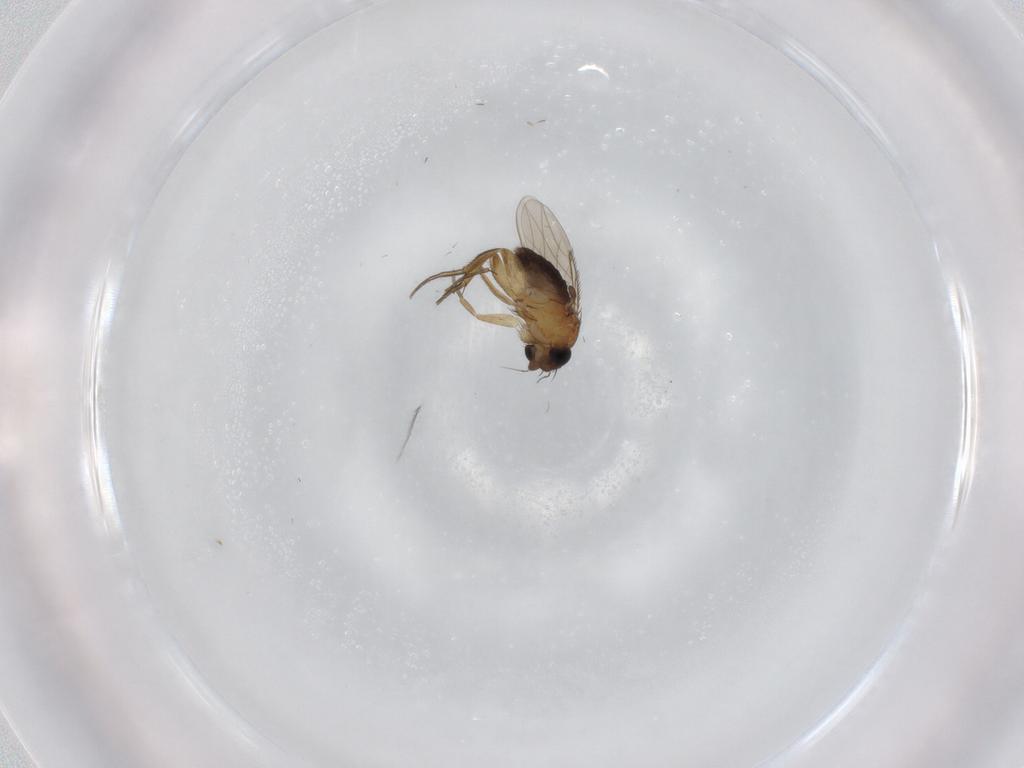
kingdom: Animalia
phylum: Arthropoda
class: Insecta
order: Diptera
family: Phoridae
